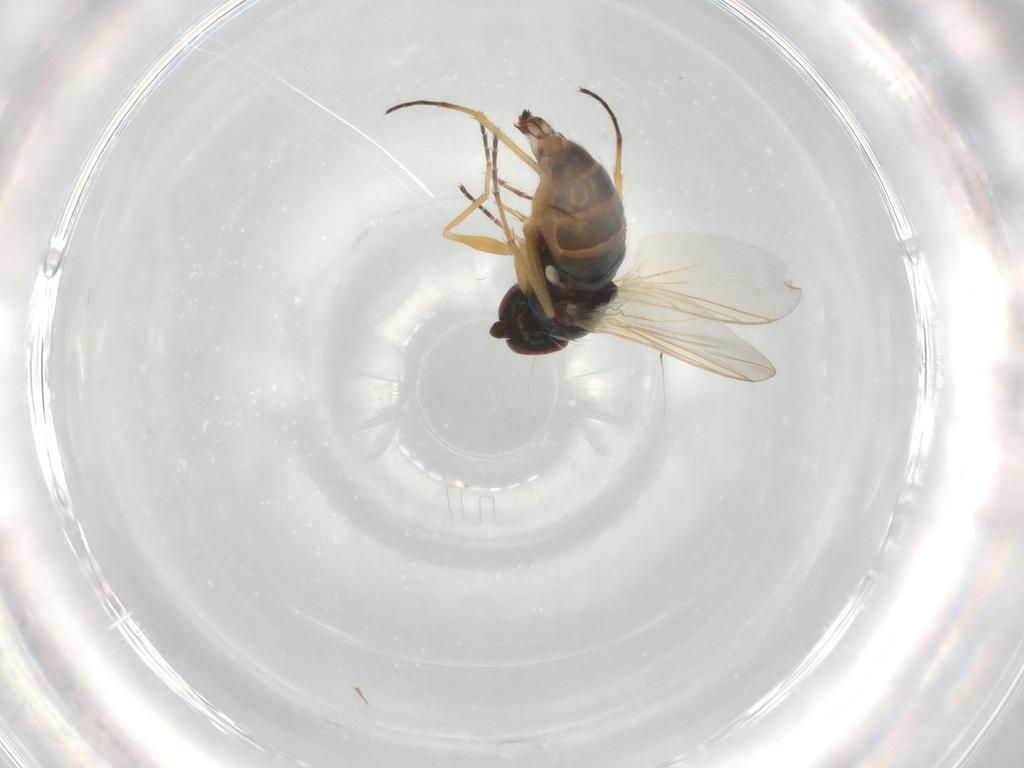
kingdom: Animalia
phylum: Arthropoda
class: Insecta
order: Diptera
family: Dolichopodidae
